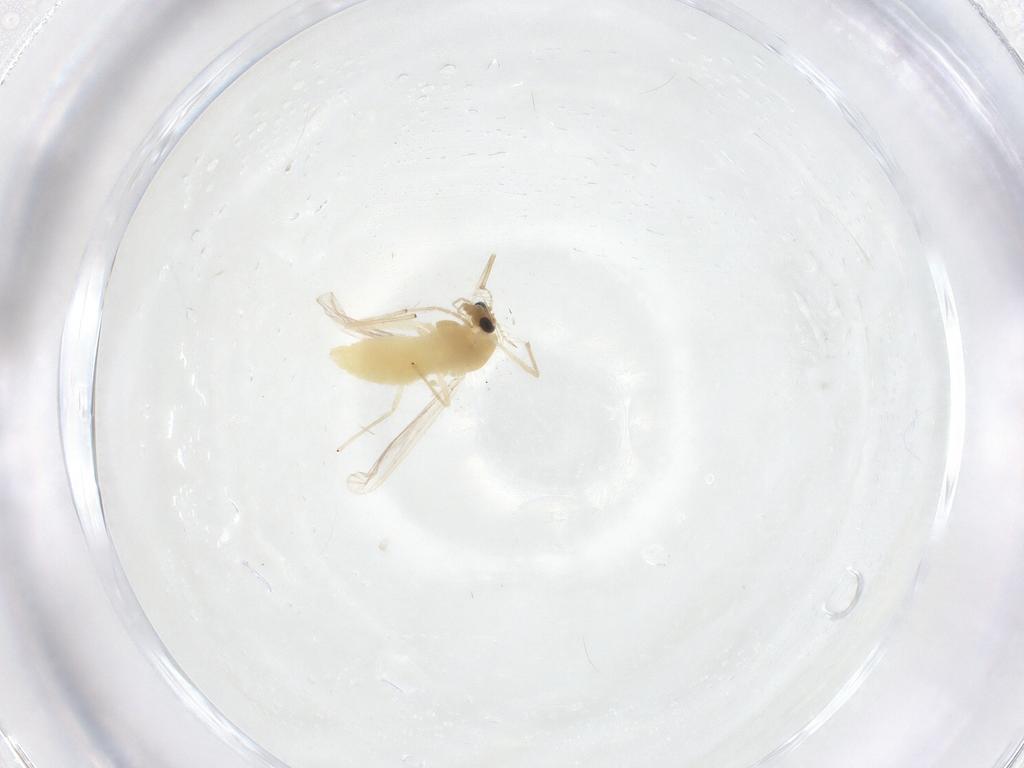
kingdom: Animalia
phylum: Arthropoda
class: Insecta
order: Diptera
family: Chironomidae
